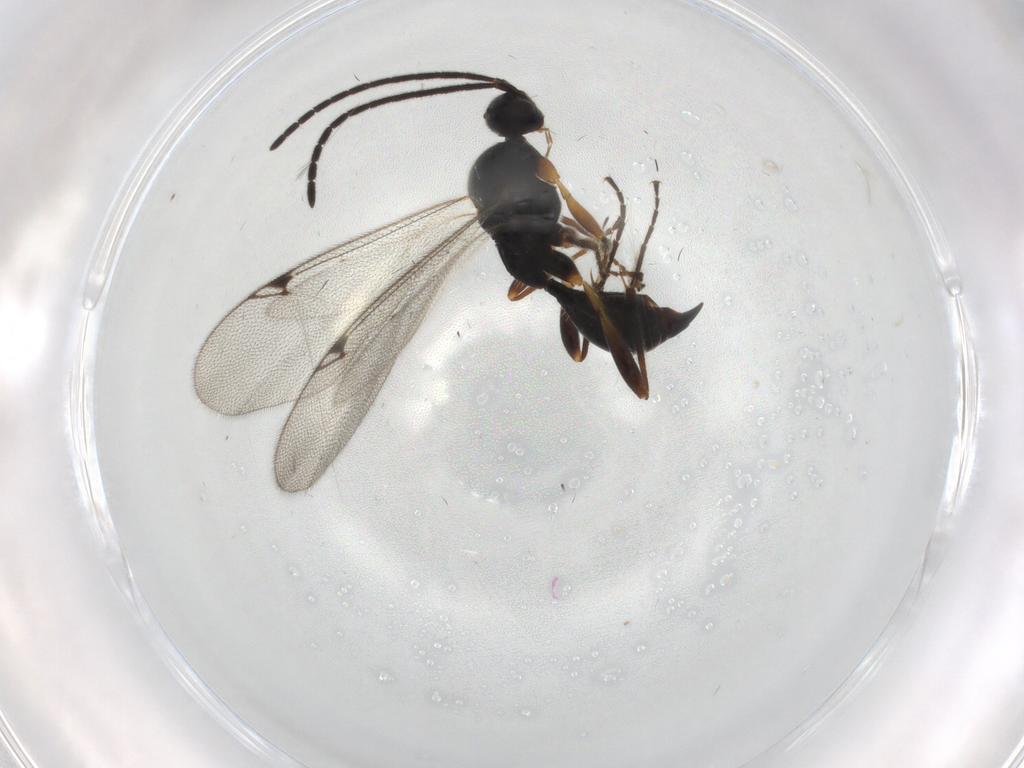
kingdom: Animalia
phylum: Arthropoda
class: Insecta
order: Hymenoptera
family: Proctotrupidae
